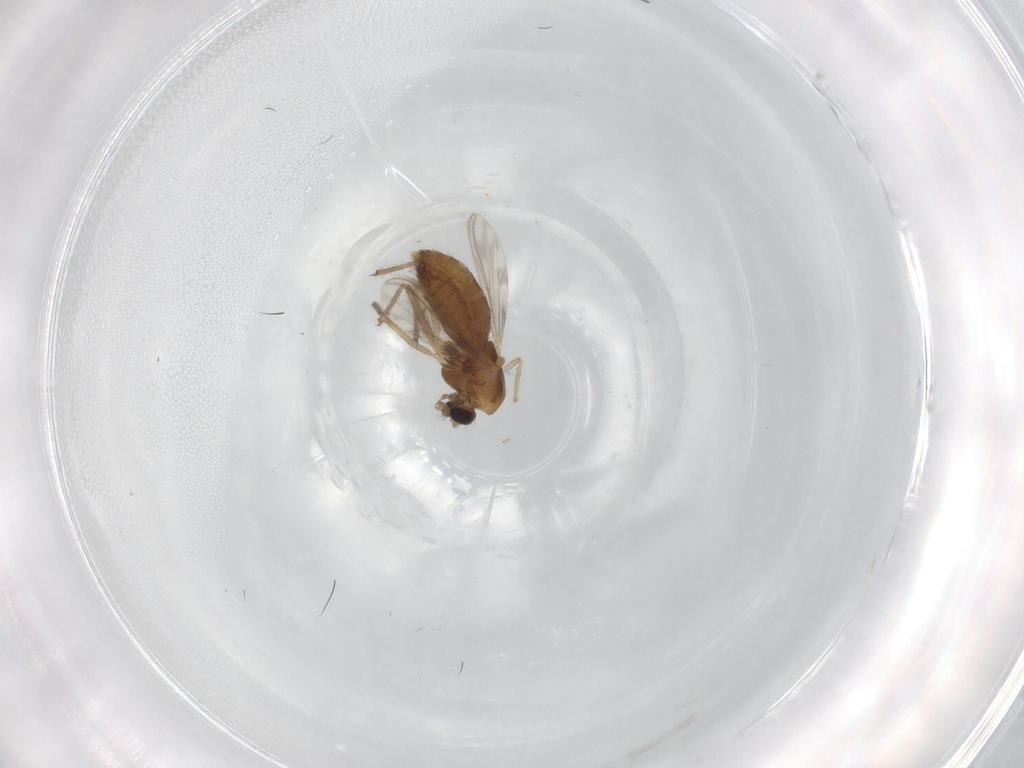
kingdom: Animalia
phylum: Arthropoda
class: Insecta
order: Diptera
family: Chironomidae
